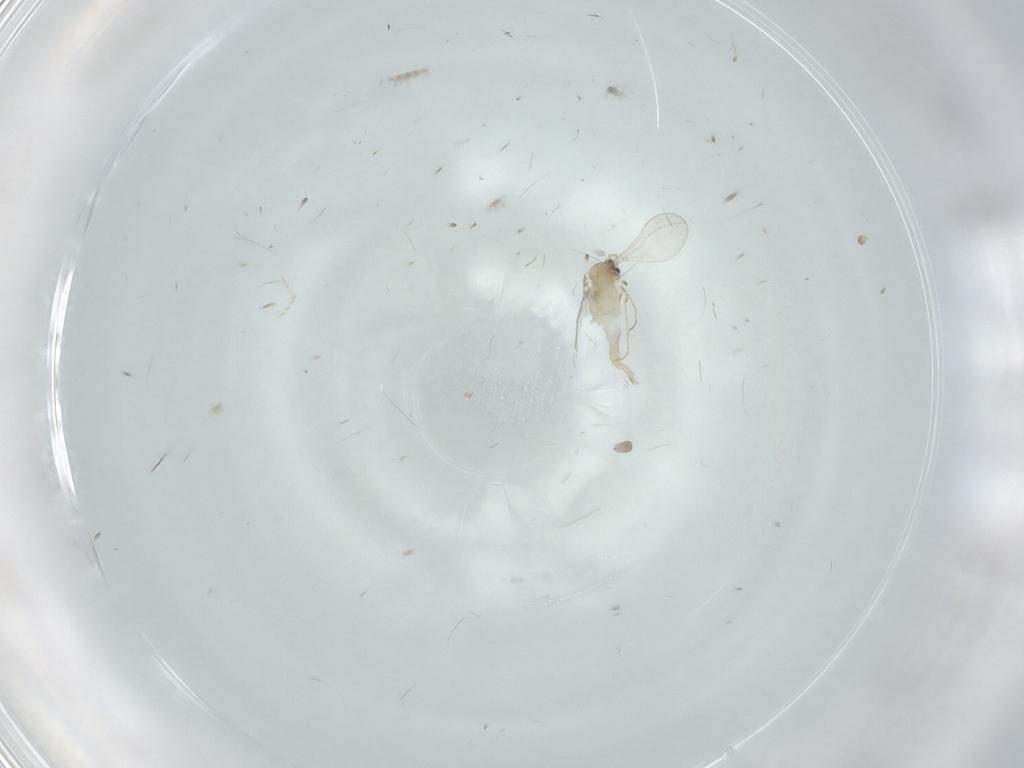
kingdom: Animalia
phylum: Arthropoda
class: Insecta
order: Diptera
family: Cecidomyiidae
